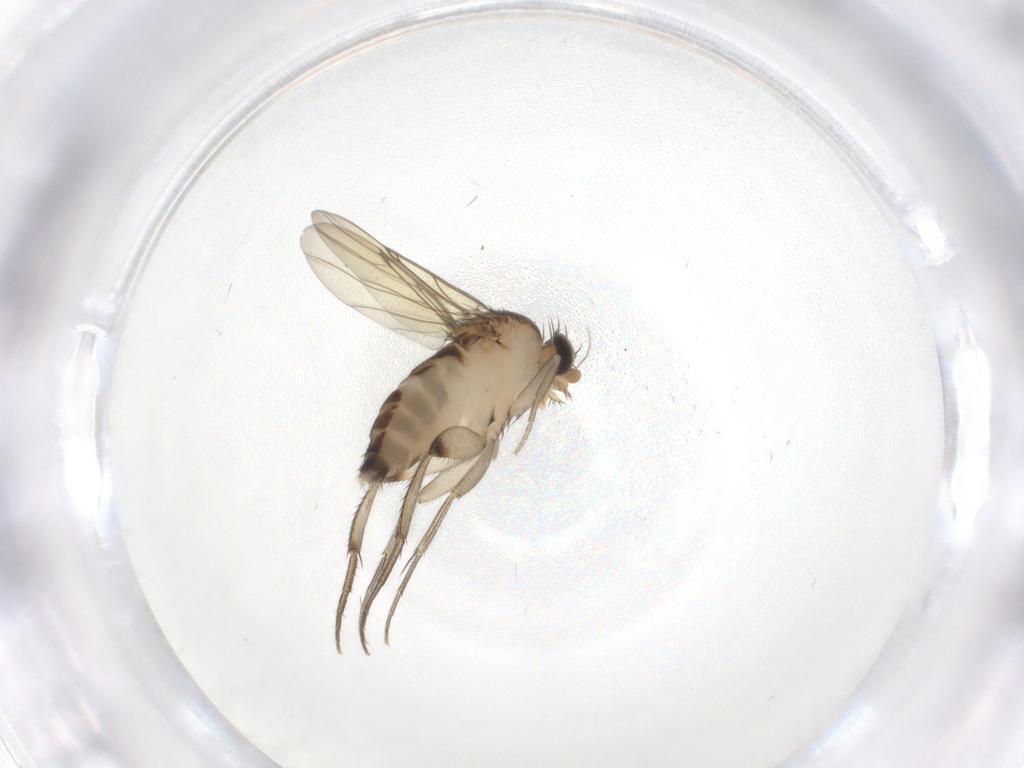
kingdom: Animalia
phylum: Arthropoda
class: Insecta
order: Diptera
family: Phoridae
